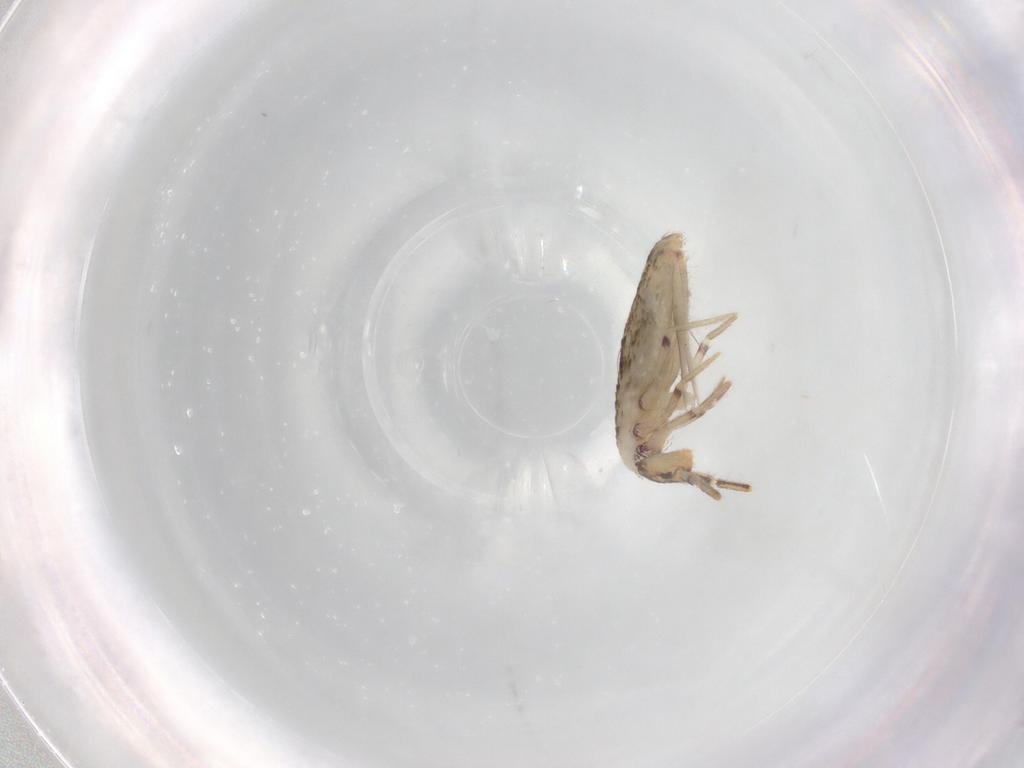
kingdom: Animalia
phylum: Arthropoda
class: Collembola
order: Entomobryomorpha
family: Entomobryidae
